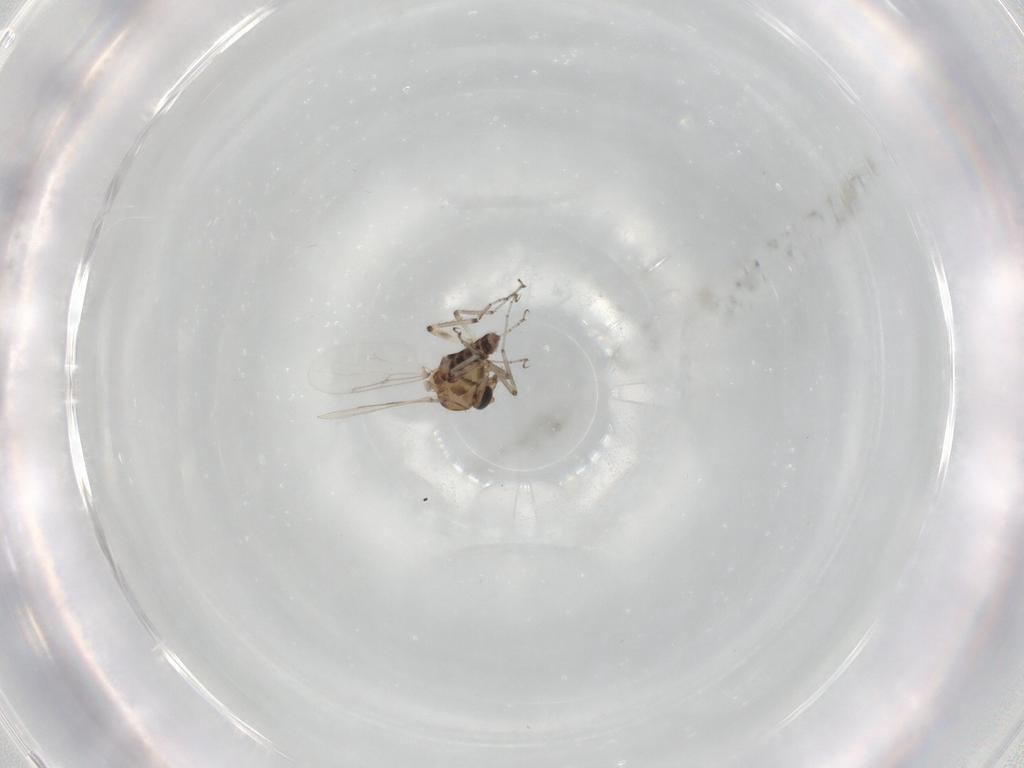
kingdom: Animalia
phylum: Arthropoda
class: Insecta
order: Diptera
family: Ceratopogonidae
